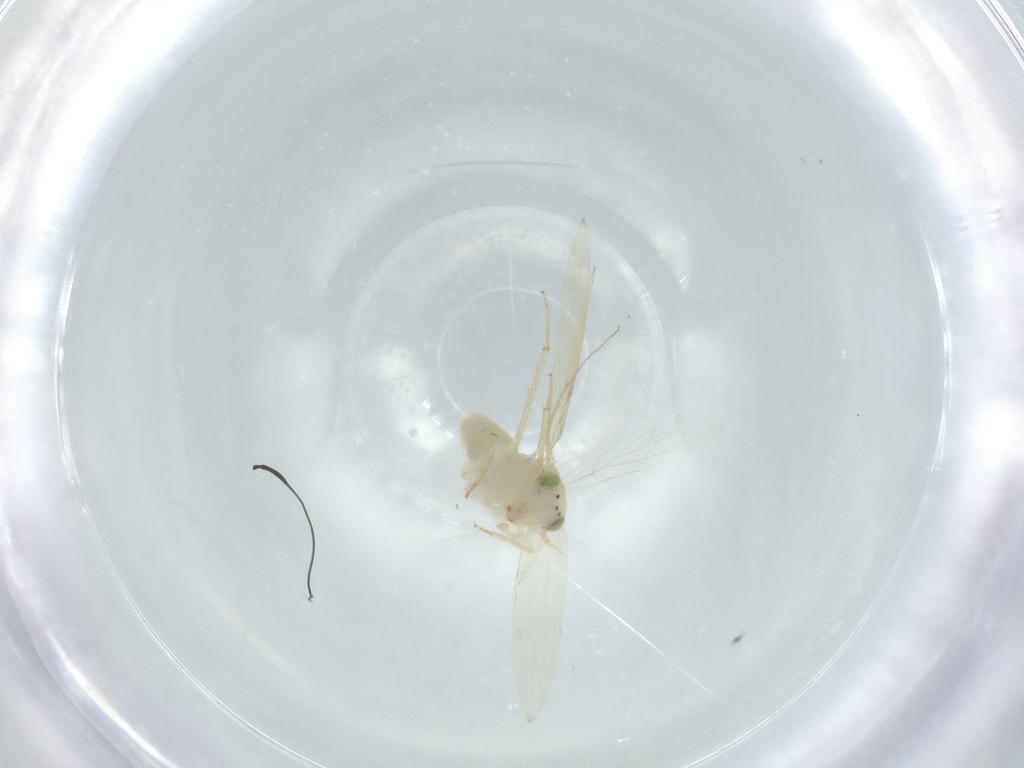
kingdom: Animalia
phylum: Arthropoda
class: Insecta
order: Psocodea
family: Lepidopsocidae
